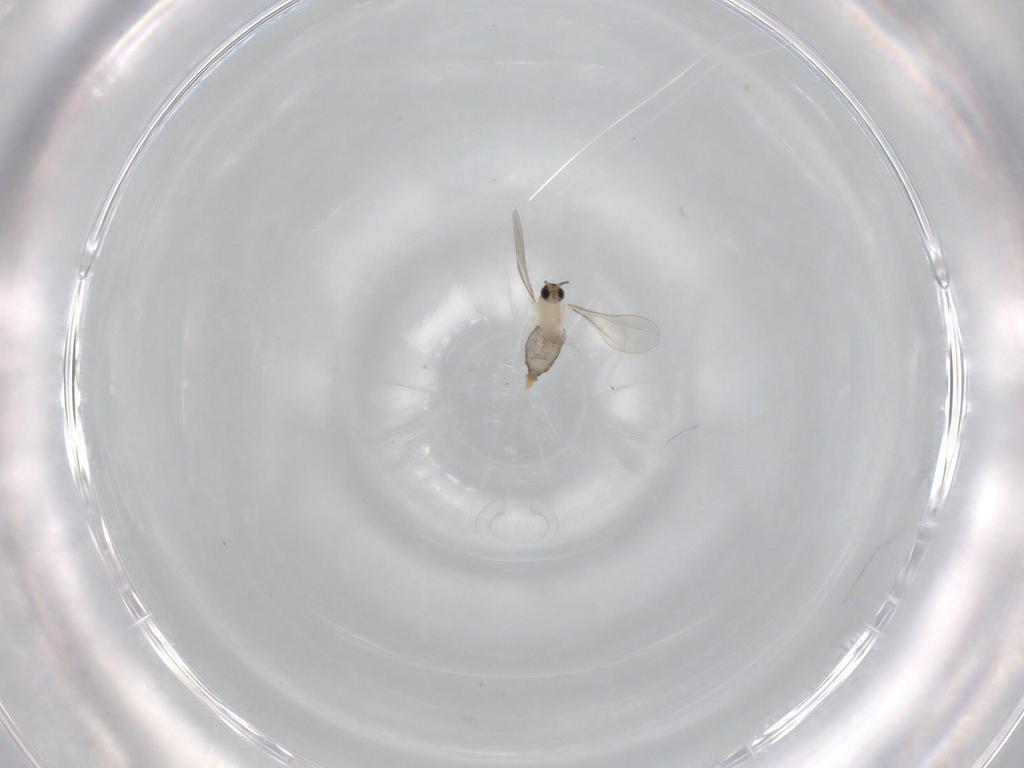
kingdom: Animalia
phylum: Arthropoda
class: Insecta
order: Diptera
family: Cecidomyiidae
